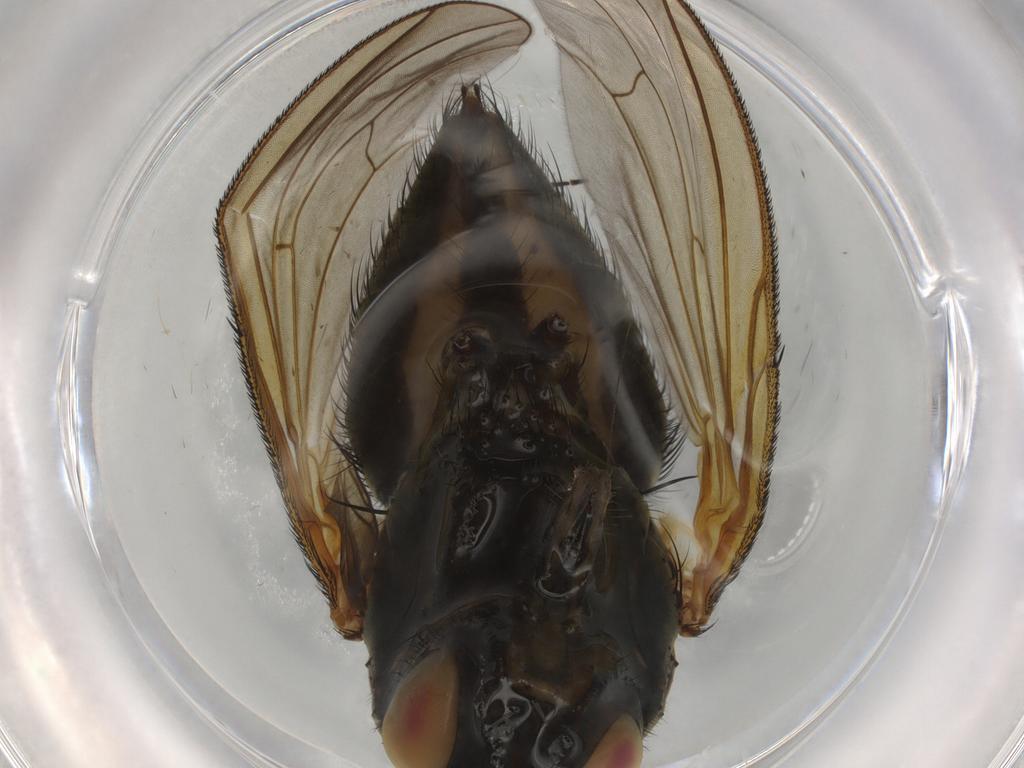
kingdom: Animalia
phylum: Arthropoda
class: Insecta
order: Diptera
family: Anthomyiidae
